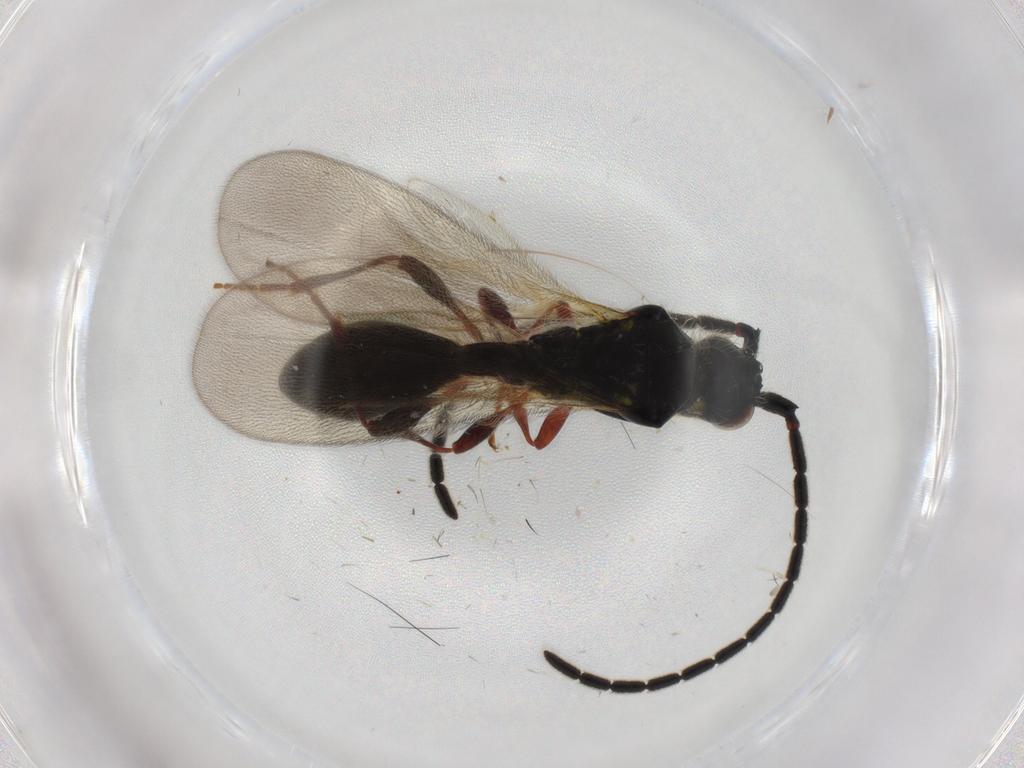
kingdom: Animalia
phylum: Arthropoda
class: Insecta
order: Hymenoptera
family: Diapriidae
